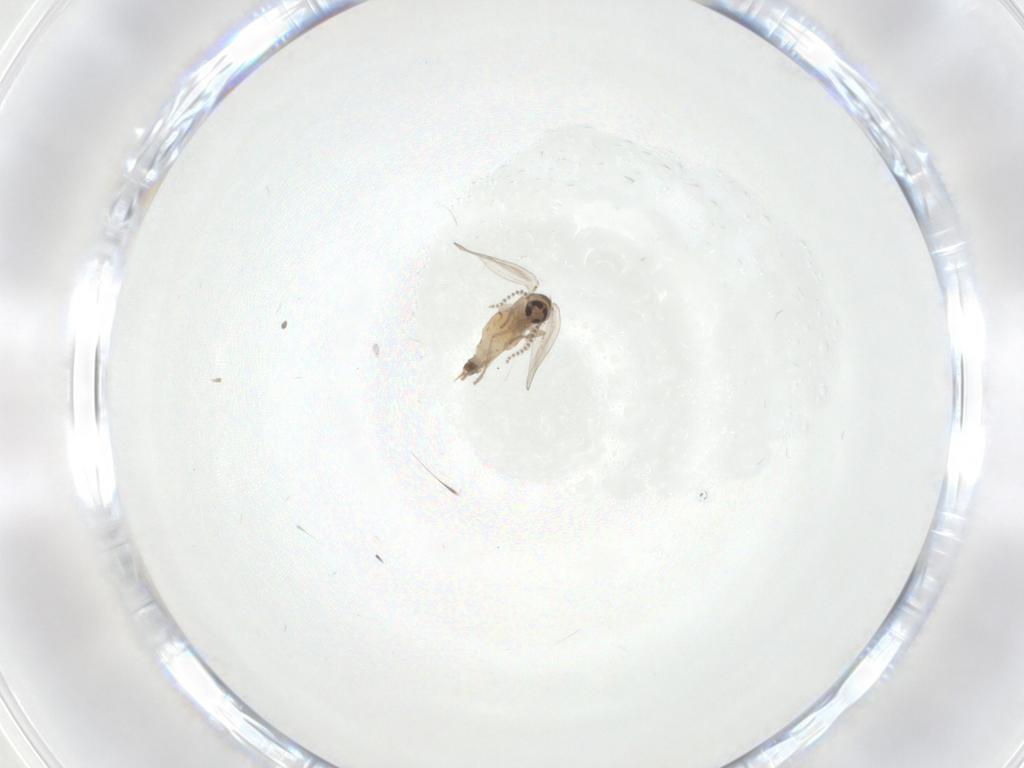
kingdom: Animalia
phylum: Arthropoda
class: Insecta
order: Diptera
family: Psychodidae
